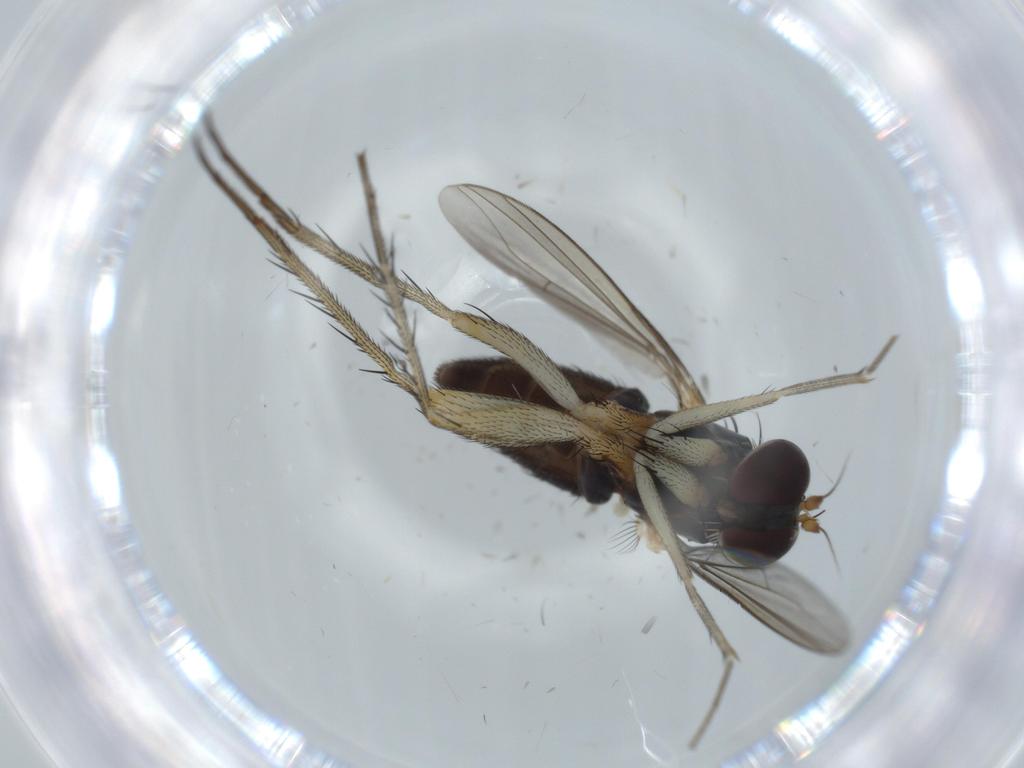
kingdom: Animalia
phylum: Arthropoda
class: Insecta
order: Diptera
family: Dolichopodidae
